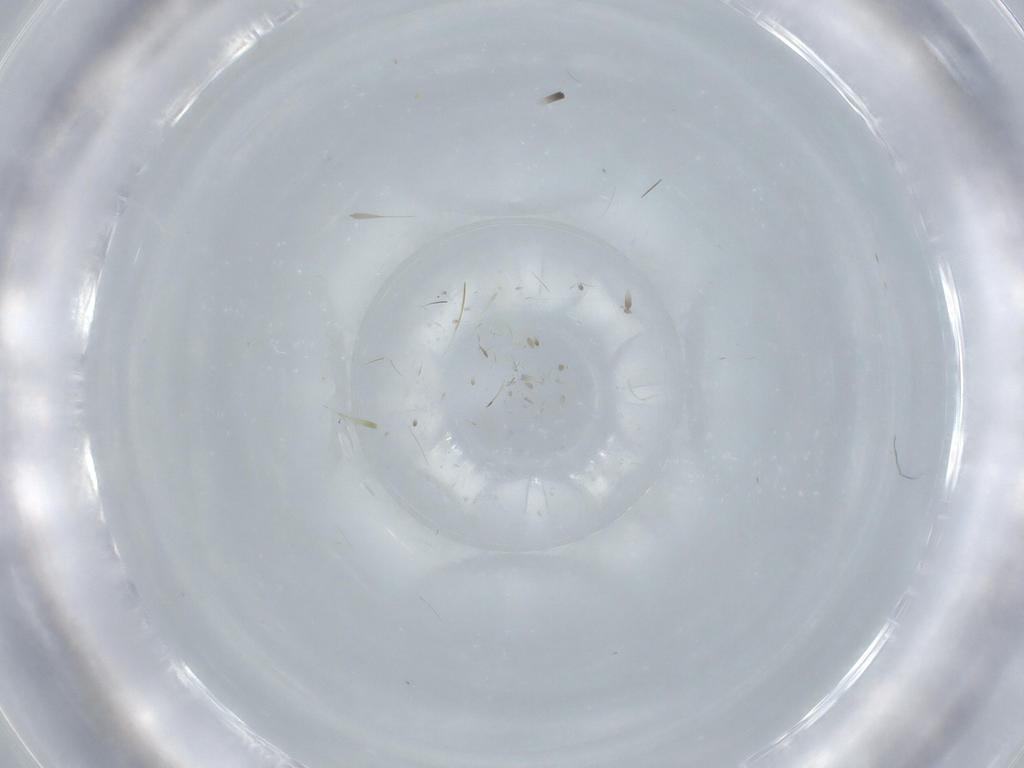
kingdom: Animalia
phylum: Arthropoda
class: Insecta
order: Diptera
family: Cecidomyiidae
